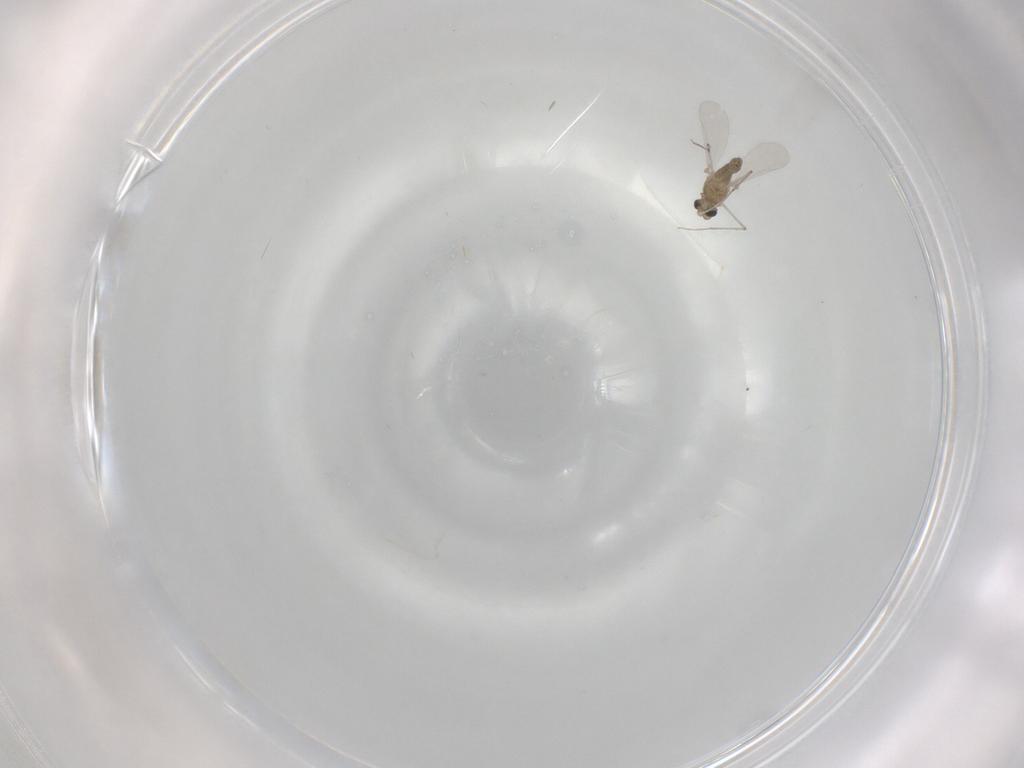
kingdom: Animalia
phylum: Arthropoda
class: Insecta
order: Diptera
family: Chironomidae
